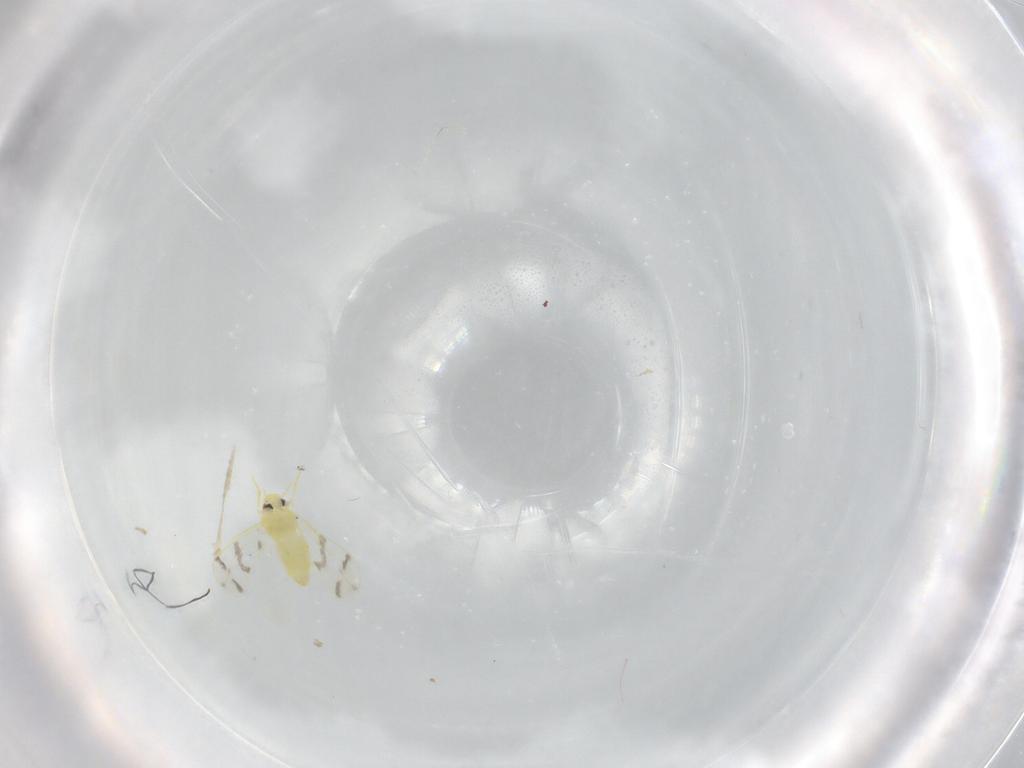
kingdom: Animalia
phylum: Arthropoda
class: Insecta
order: Hemiptera
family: Aleyrodidae
